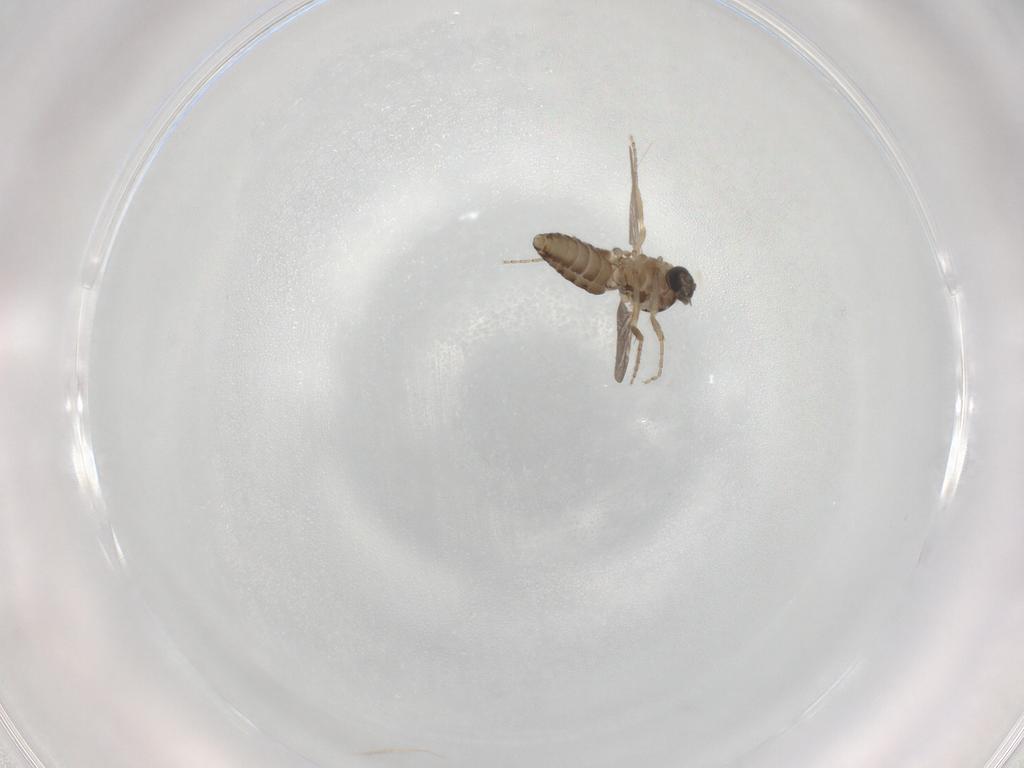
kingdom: Animalia
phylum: Arthropoda
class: Insecta
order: Diptera
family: Ceratopogonidae
